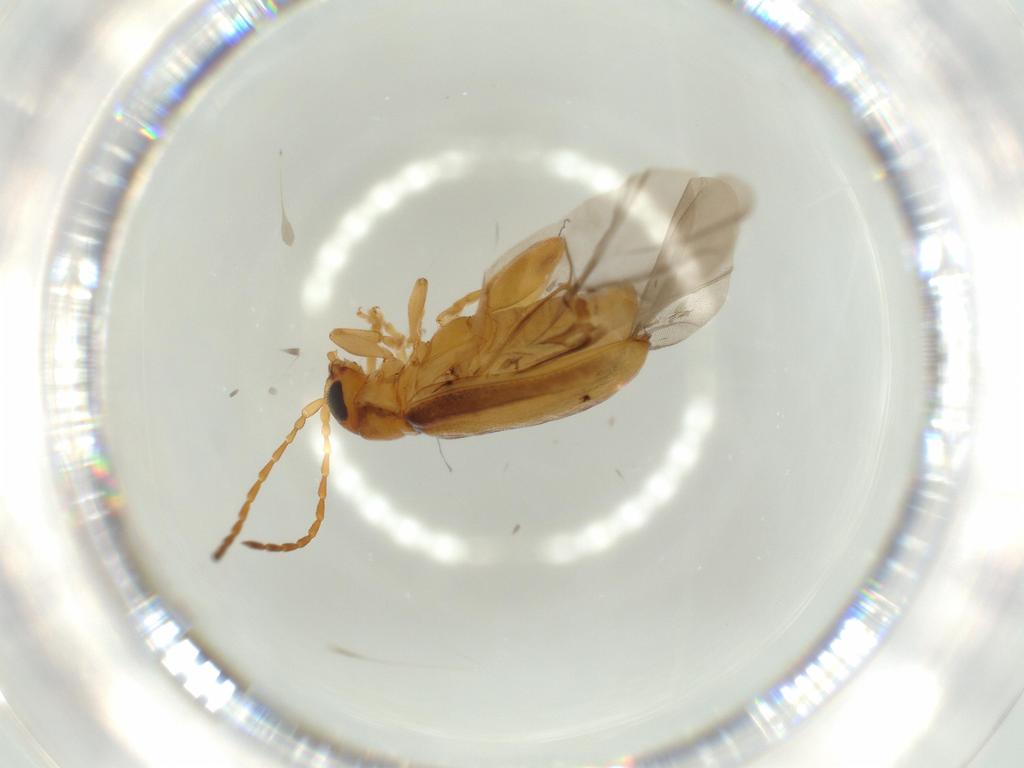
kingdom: Animalia
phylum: Arthropoda
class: Insecta
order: Coleoptera
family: Chrysomelidae
